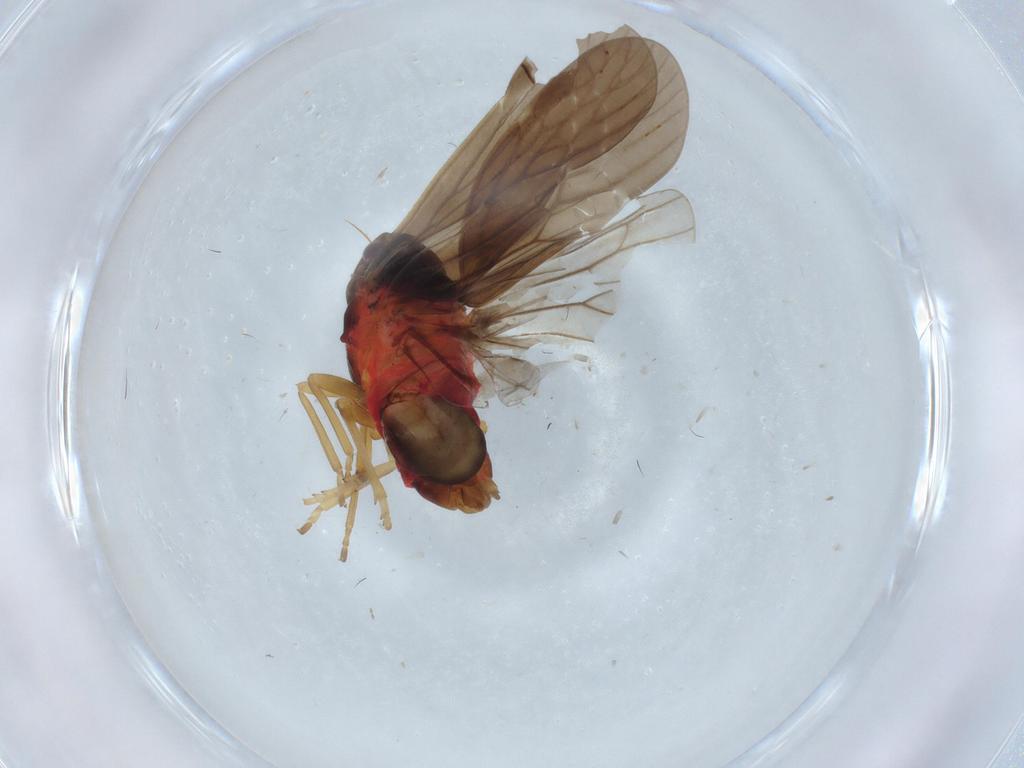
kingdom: Animalia
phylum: Arthropoda
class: Insecta
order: Hemiptera
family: Derbidae
